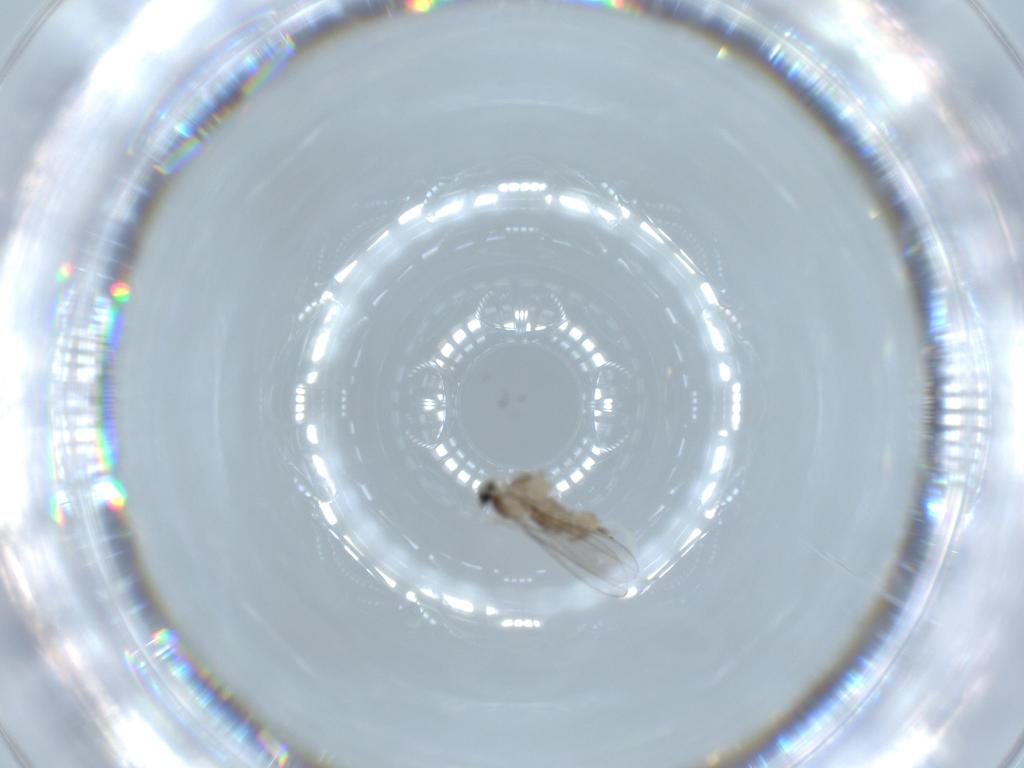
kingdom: Animalia
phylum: Arthropoda
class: Insecta
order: Diptera
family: Cecidomyiidae
